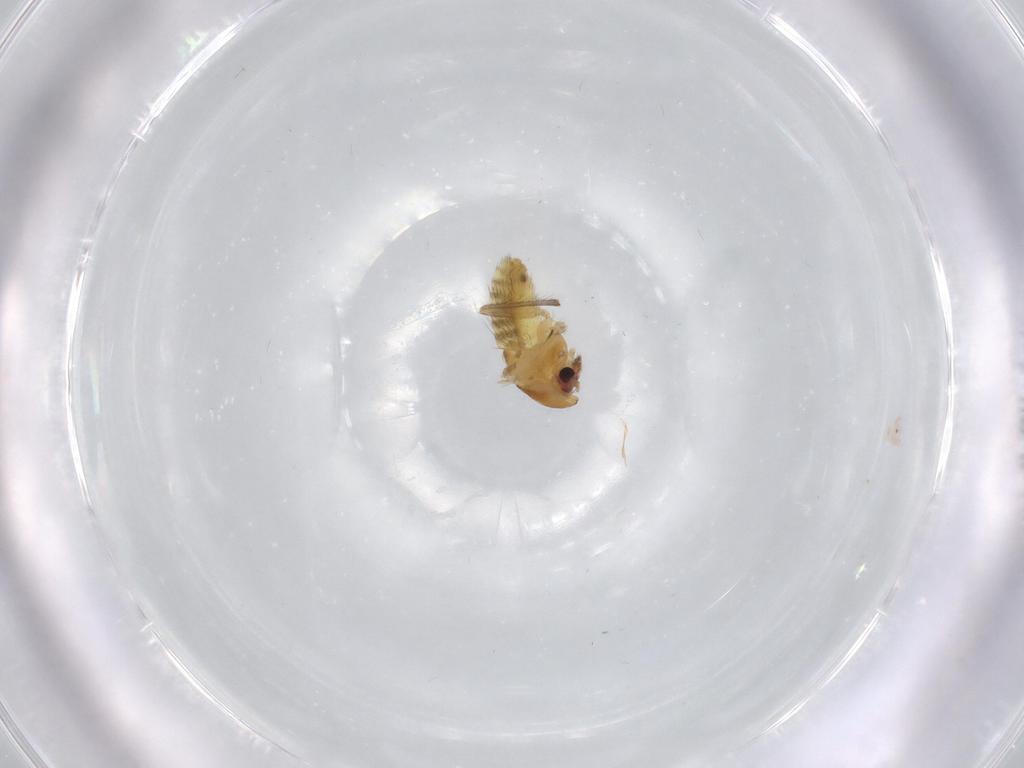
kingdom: Animalia
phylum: Arthropoda
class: Insecta
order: Diptera
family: Chironomidae
